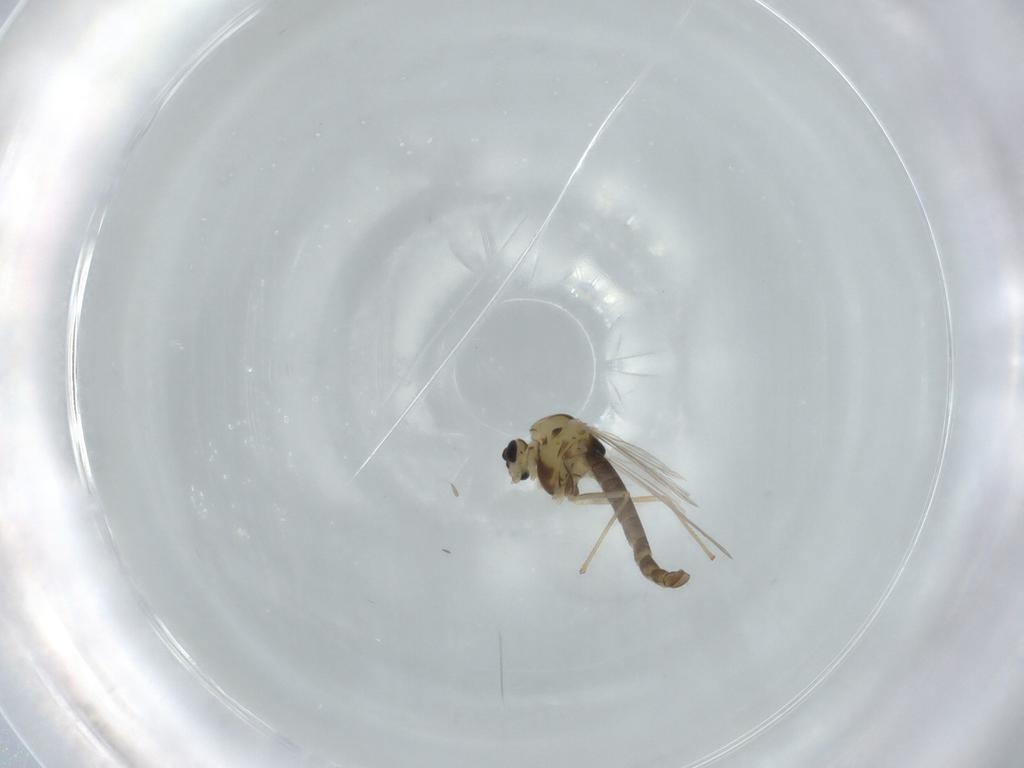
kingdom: Animalia
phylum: Arthropoda
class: Insecta
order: Diptera
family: Chironomidae
